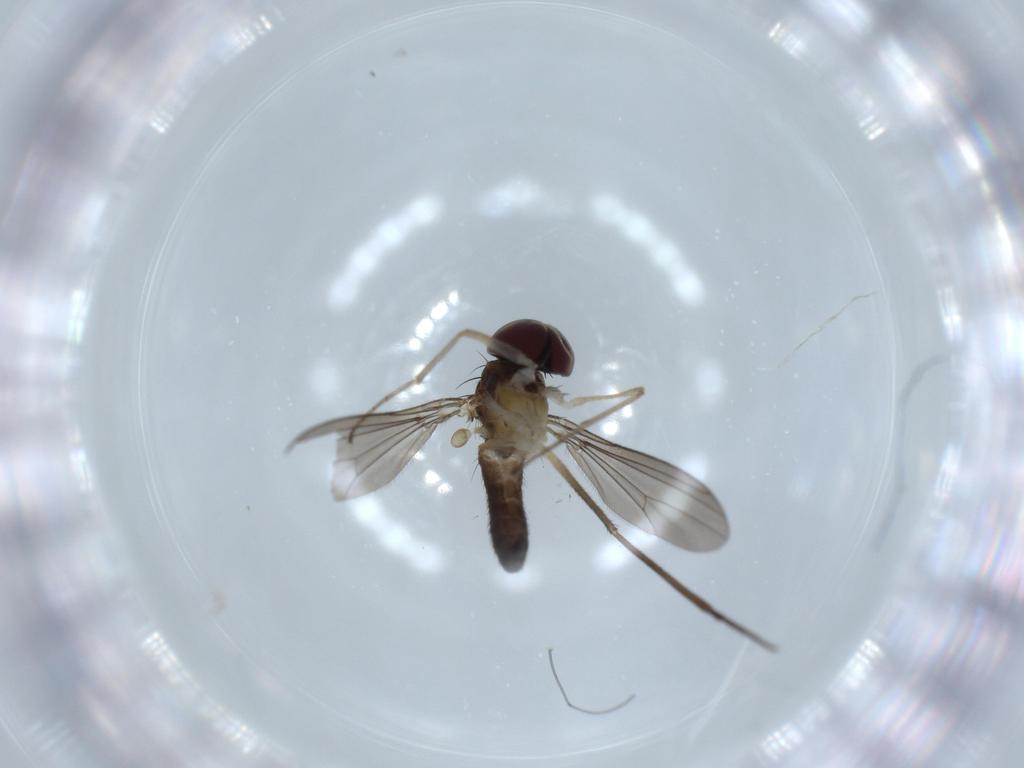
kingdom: Animalia
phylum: Arthropoda
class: Insecta
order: Diptera
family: Dolichopodidae
